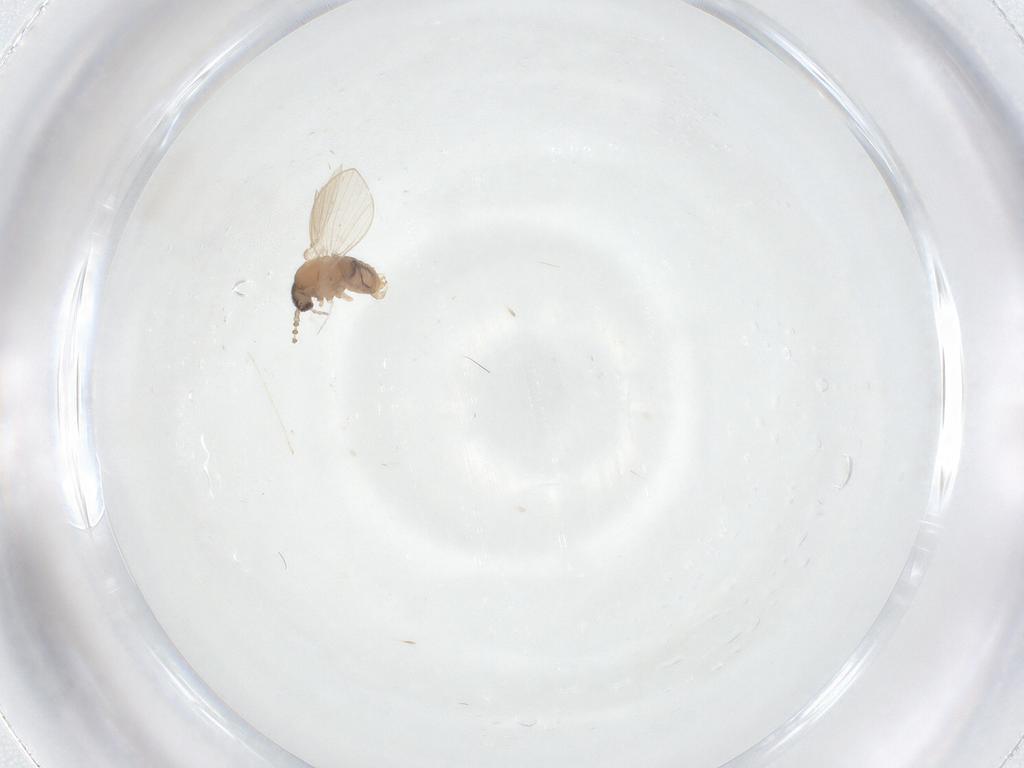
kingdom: Animalia
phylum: Arthropoda
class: Insecta
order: Diptera
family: Psychodidae
